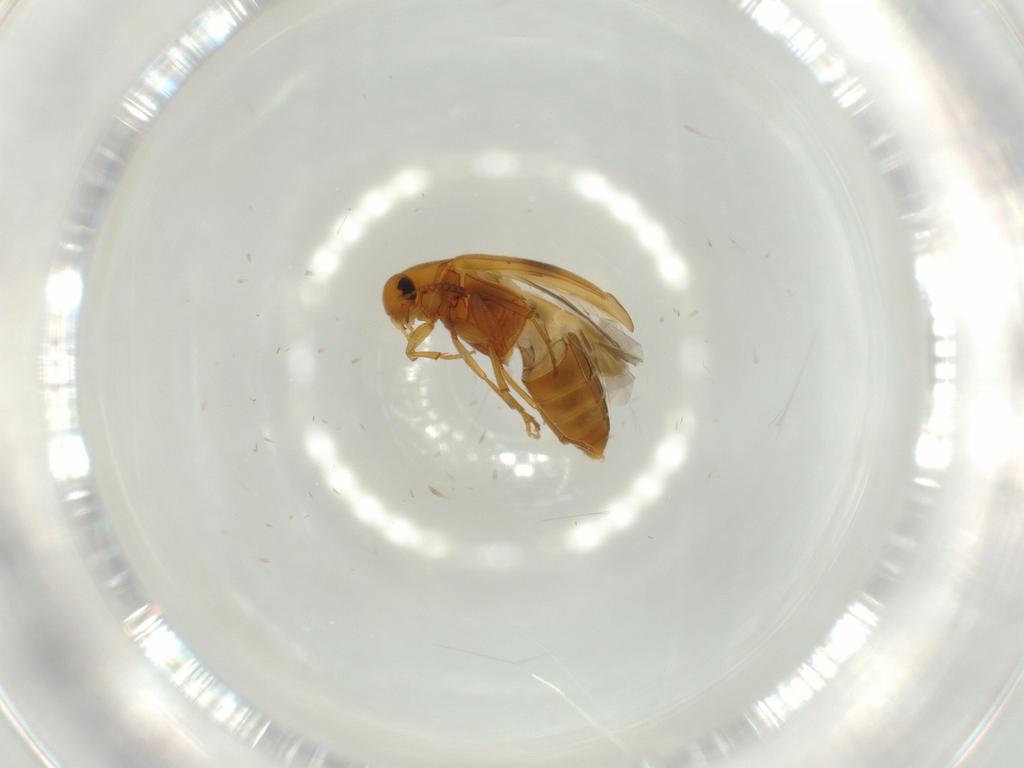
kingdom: Animalia
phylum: Arthropoda
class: Insecta
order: Coleoptera
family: Scraptiidae
